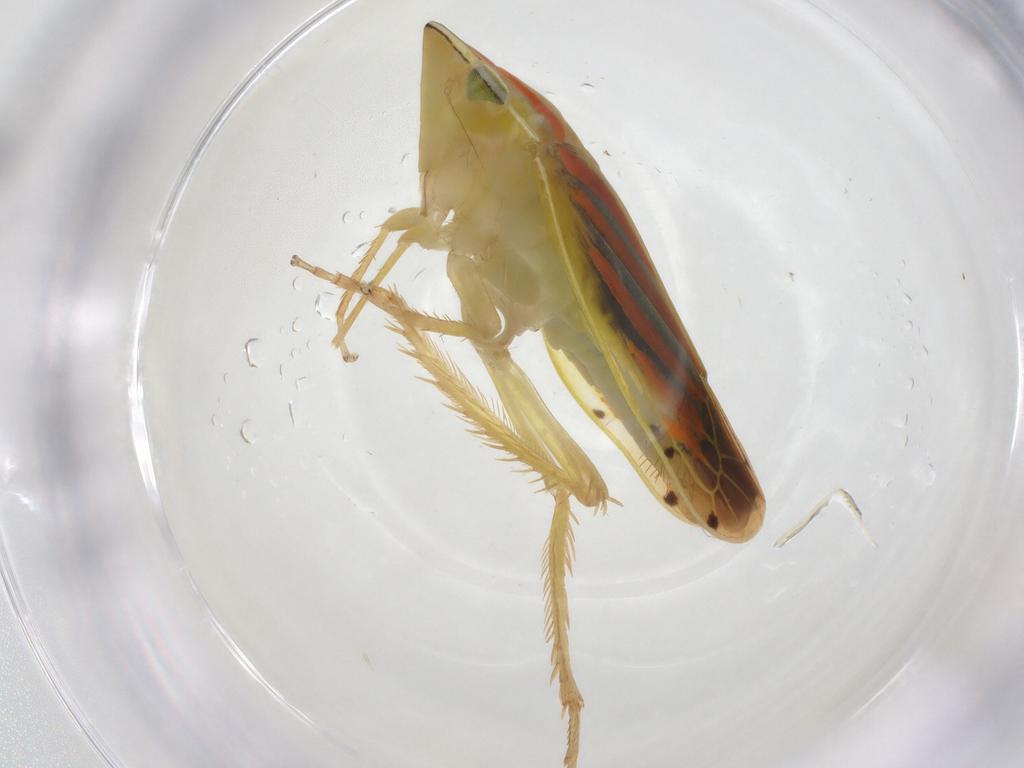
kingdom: Animalia
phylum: Arthropoda
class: Insecta
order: Hemiptera
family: Cicadellidae
